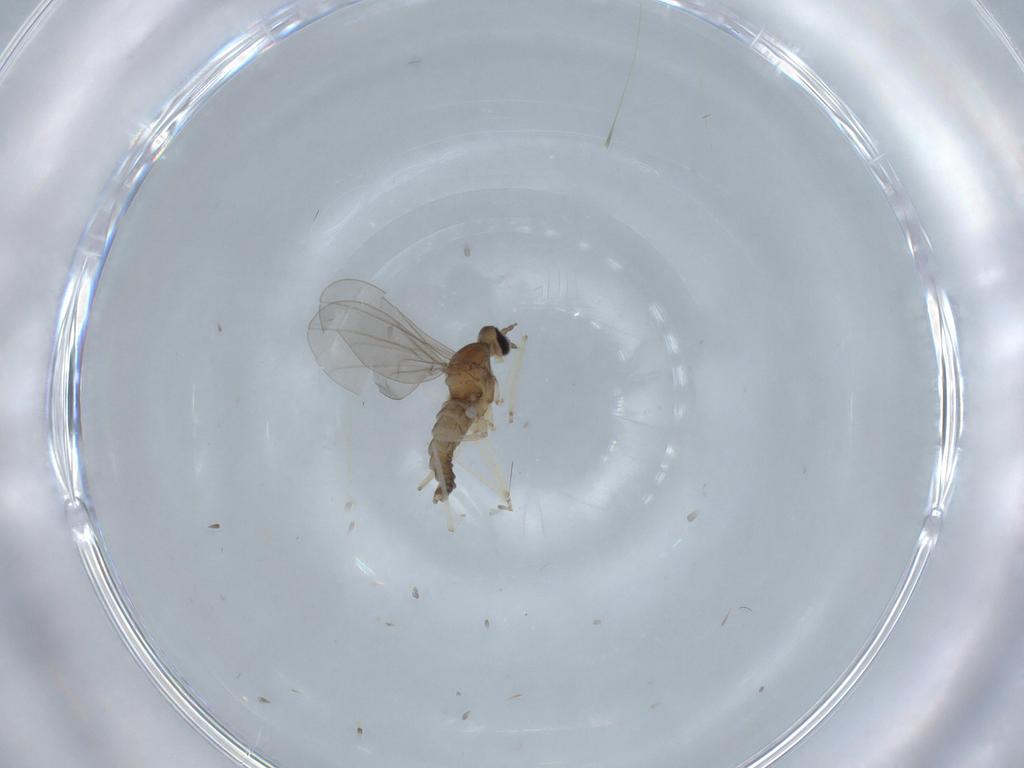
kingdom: Animalia
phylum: Arthropoda
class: Insecta
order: Diptera
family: Cecidomyiidae
